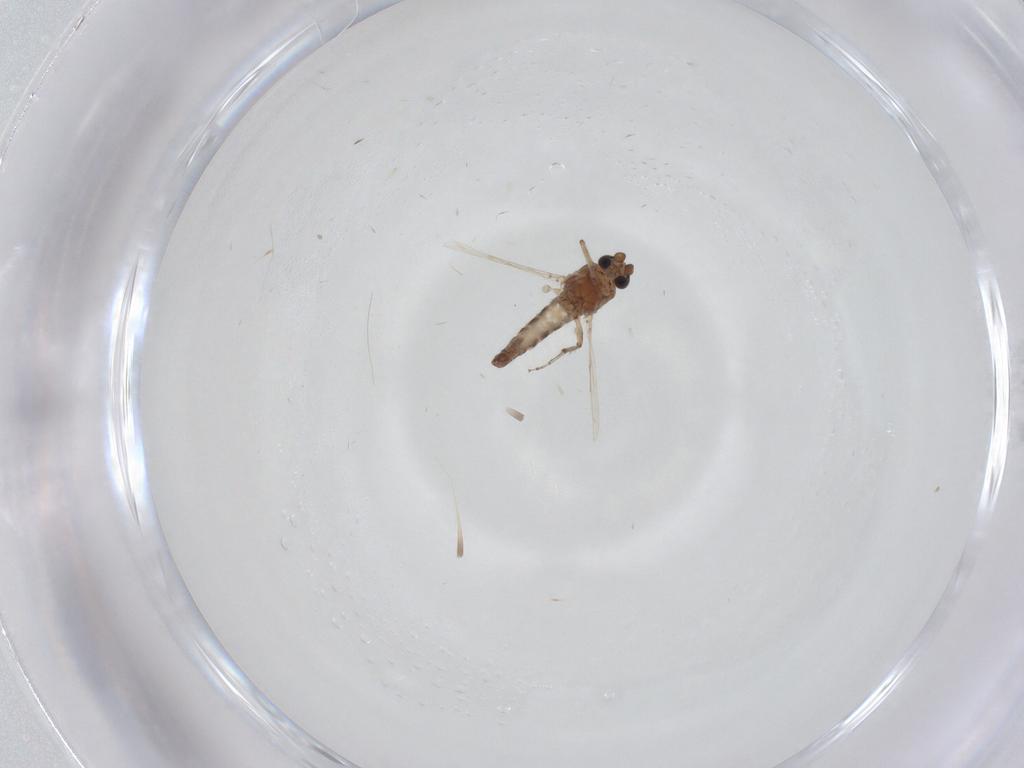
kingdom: Animalia
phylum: Arthropoda
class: Insecta
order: Diptera
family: Ceratopogonidae
